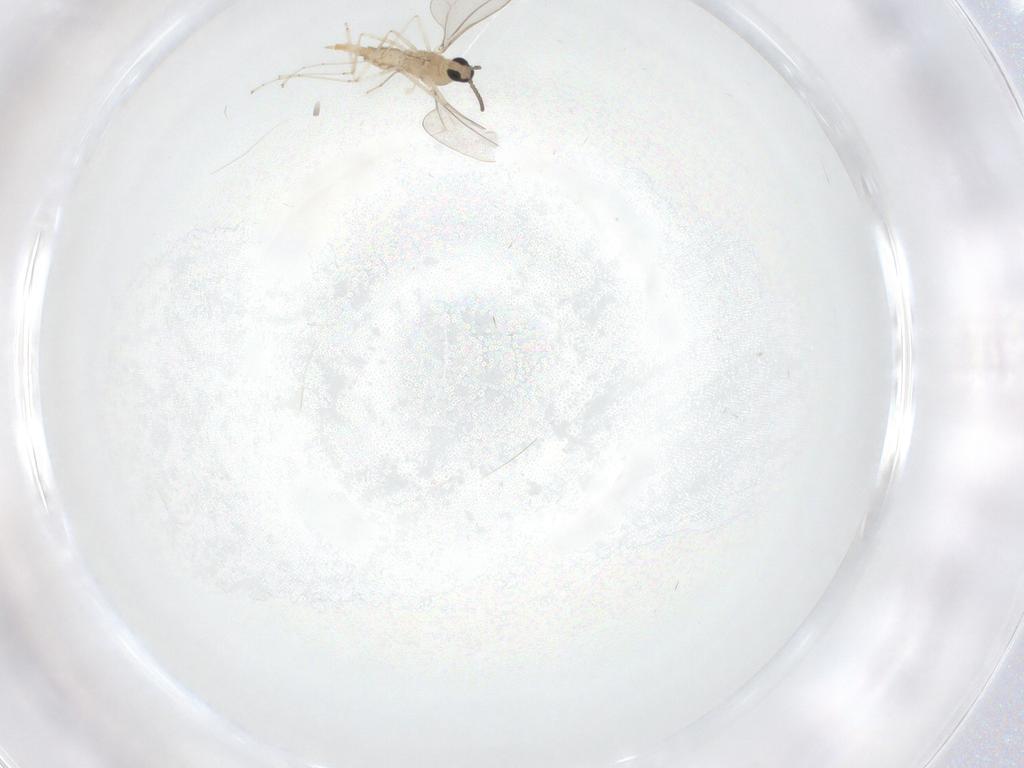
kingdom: Animalia
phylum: Arthropoda
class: Insecta
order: Diptera
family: Cecidomyiidae
